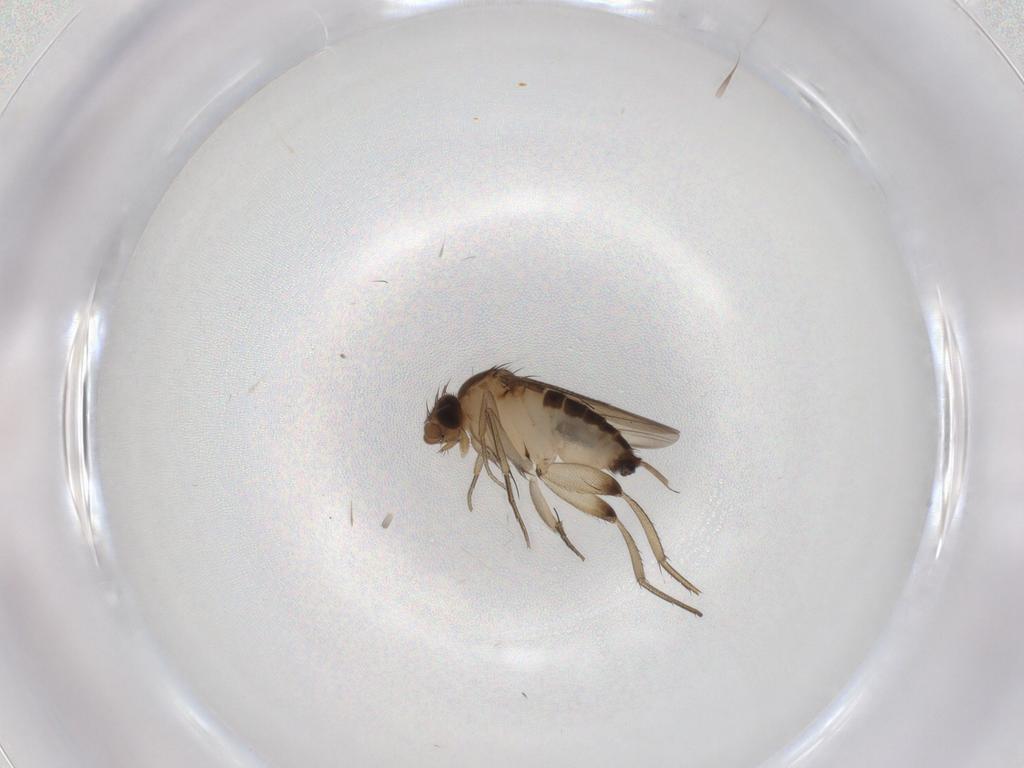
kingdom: Animalia
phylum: Arthropoda
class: Insecta
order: Diptera
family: Phoridae
